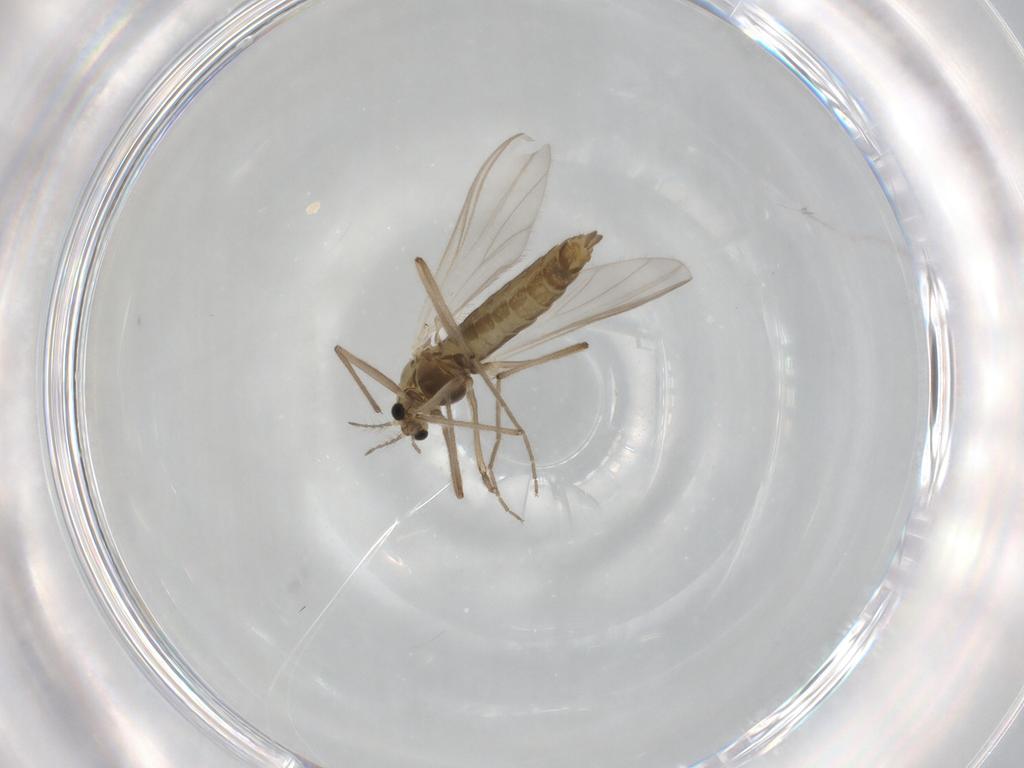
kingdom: Animalia
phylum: Arthropoda
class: Insecta
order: Diptera
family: Chironomidae
